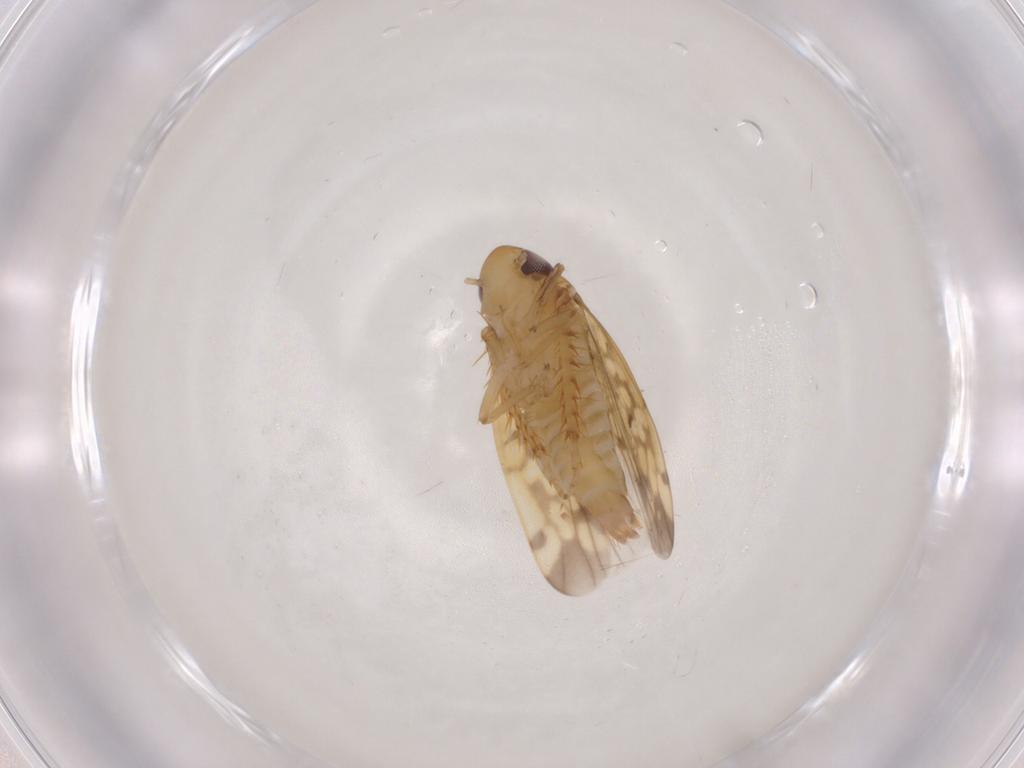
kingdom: Animalia
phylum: Arthropoda
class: Insecta
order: Hemiptera
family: Cicadellidae
